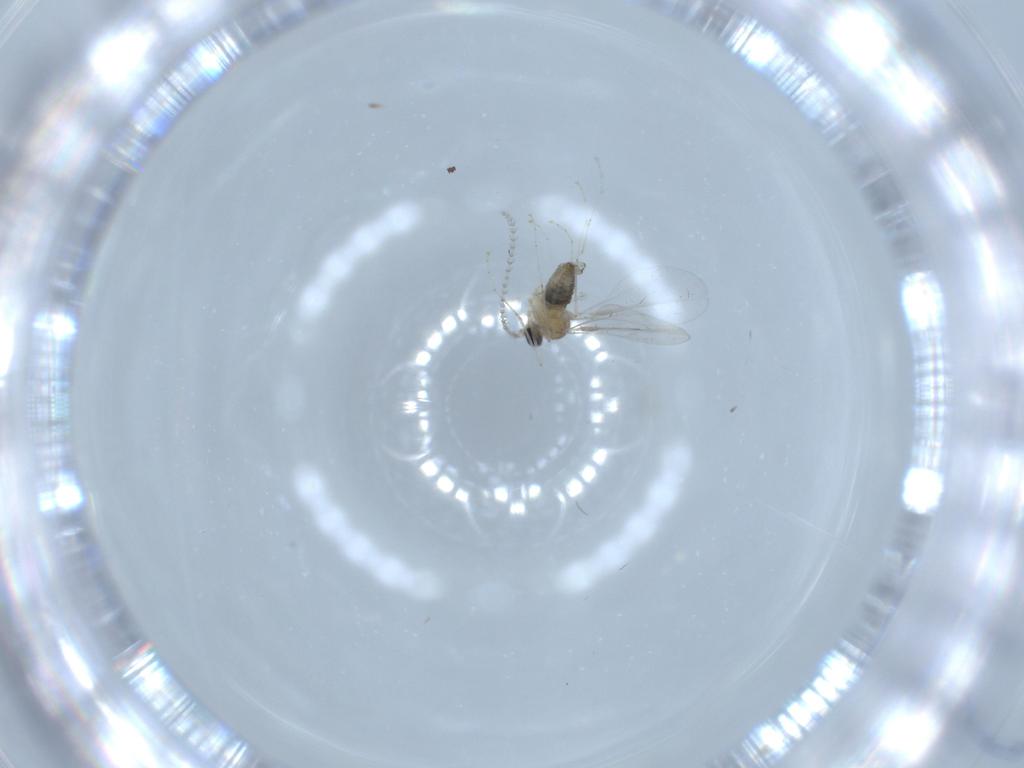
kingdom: Animalia
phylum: Arthropoda
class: Insecta
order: Diptera
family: Cecidomyiidae
